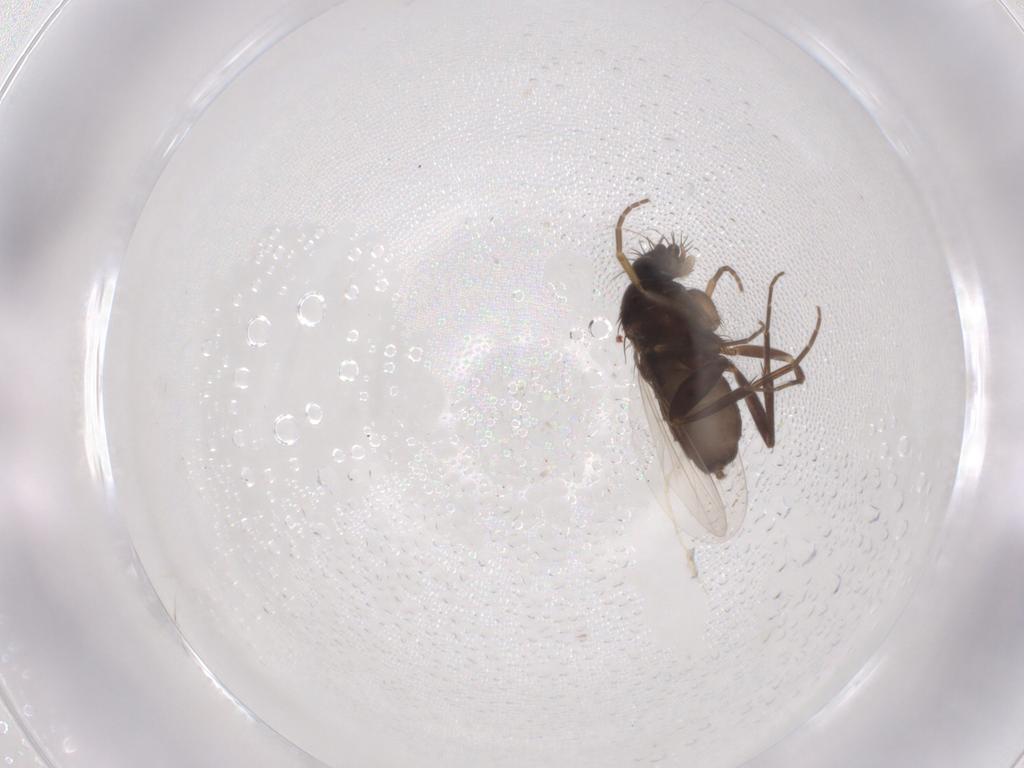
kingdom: Animalia
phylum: Arthropoda
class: Insecta
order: Diptera
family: Phoridae
